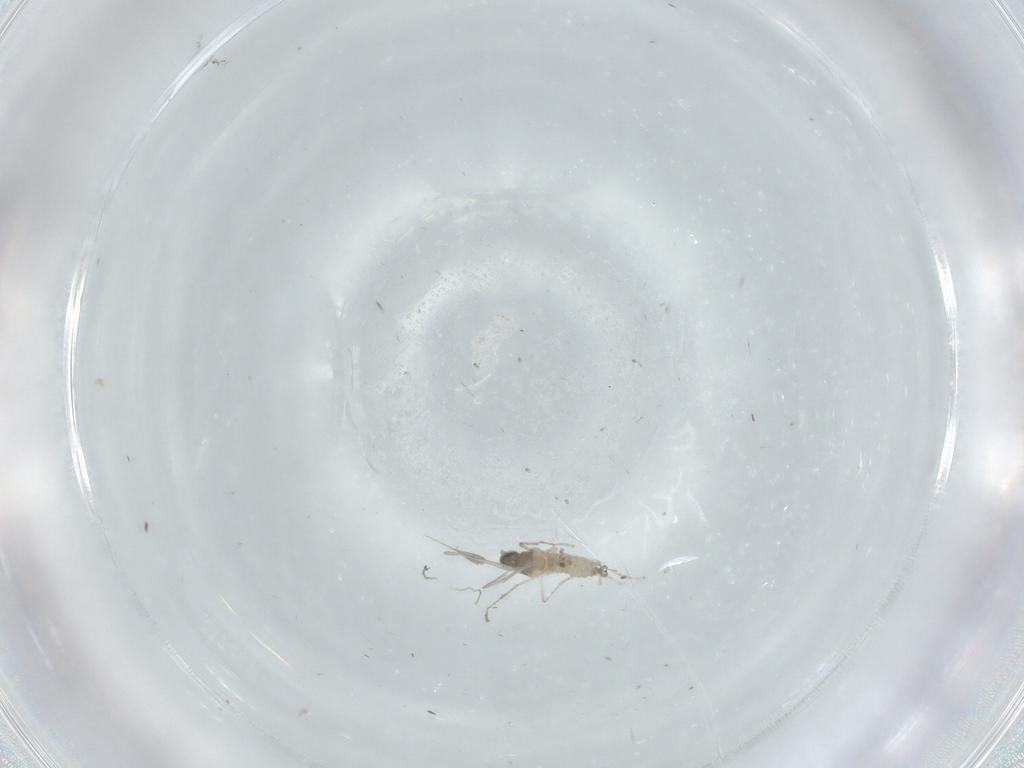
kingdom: Animalia
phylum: Arthropoda
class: Insecta
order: Diptera
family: Cecidomyiidae
